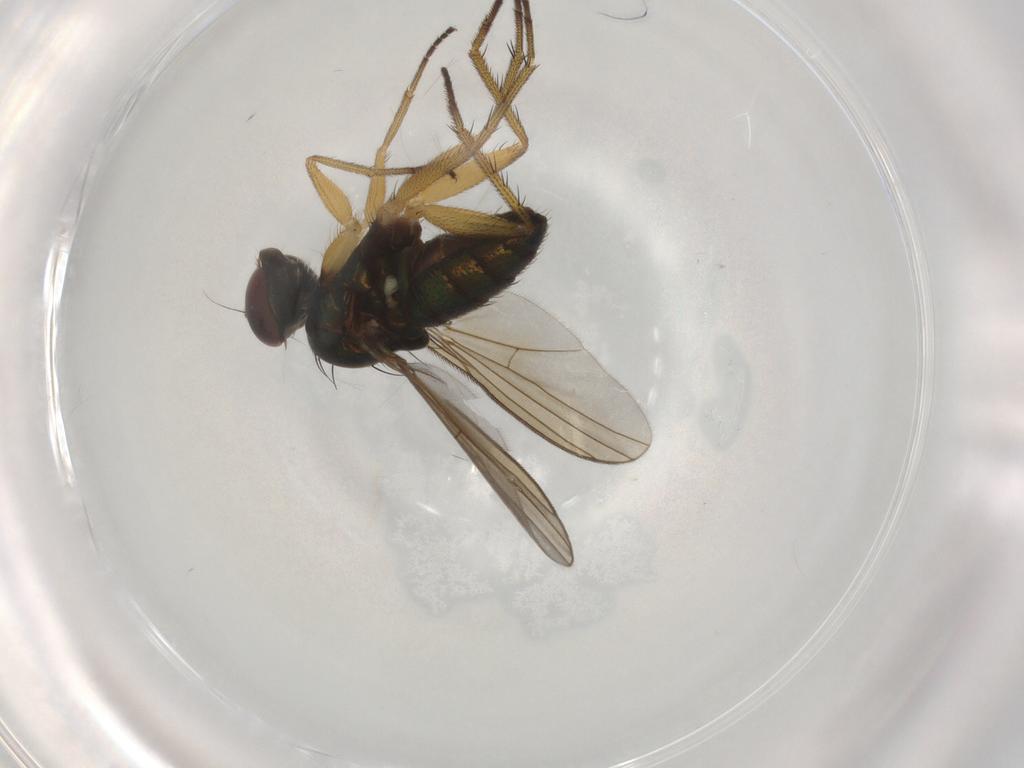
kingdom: Animalia
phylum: Arthropoda
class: Insecta
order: Diptera
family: Dolichopodidae
